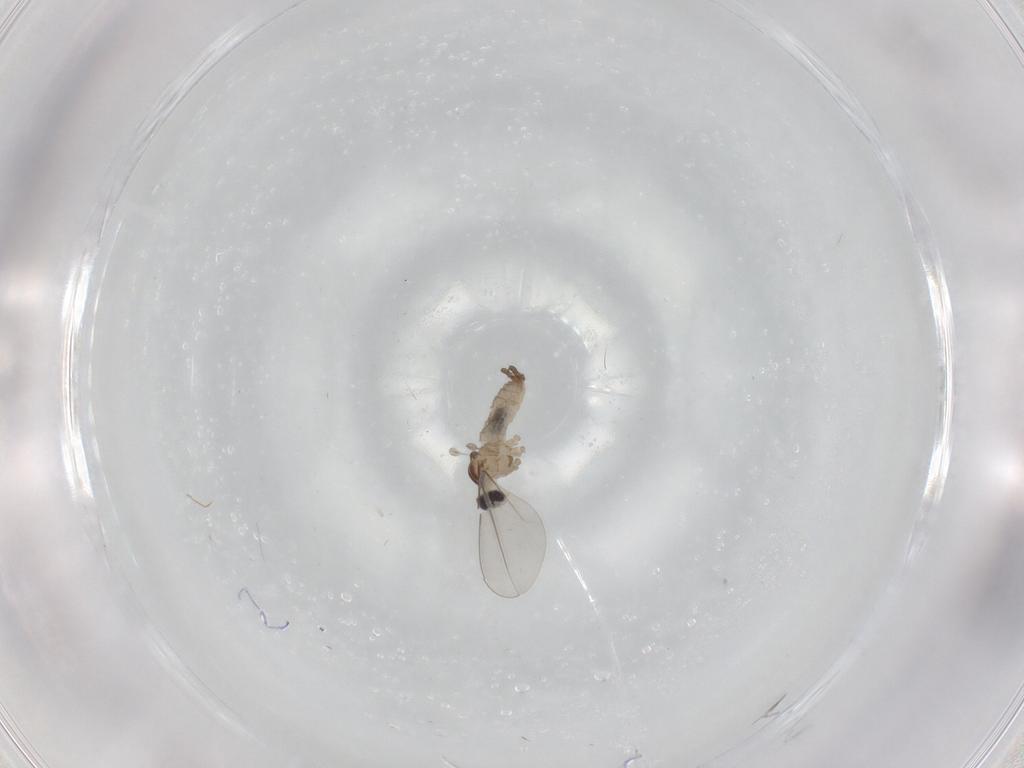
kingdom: Animalia
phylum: Arthropoda
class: Insecta
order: Diptera
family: Cecidomyiidae
